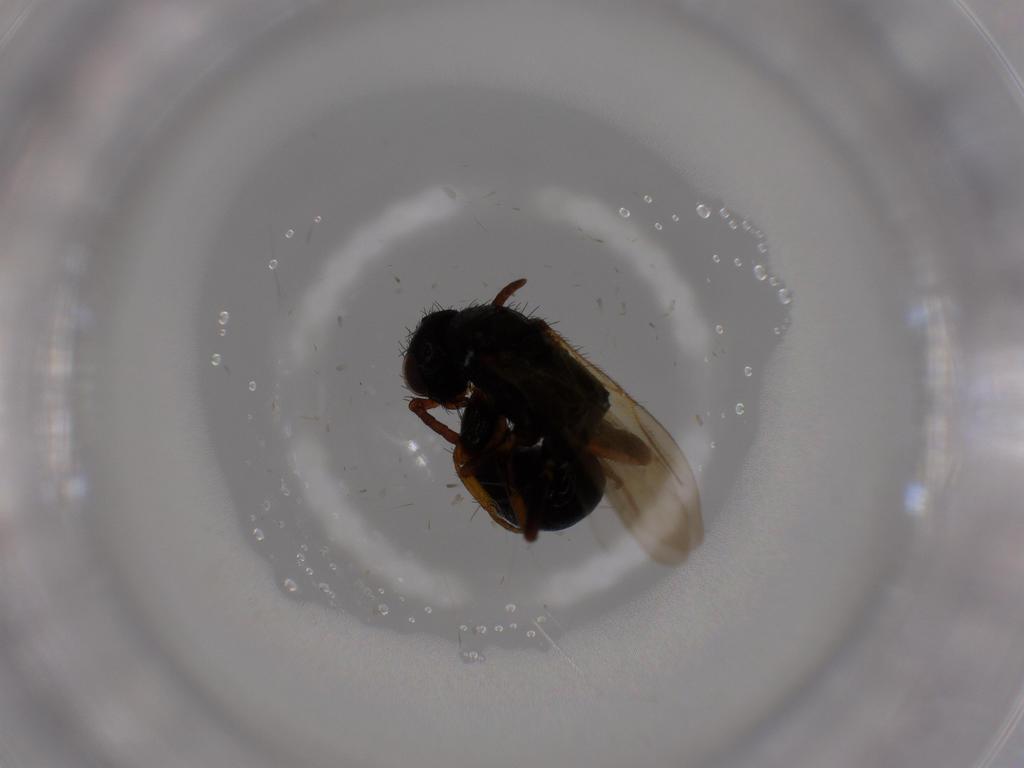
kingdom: Animalia
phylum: Arthropoda
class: Insecta
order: Hymenoptera
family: Bethylidae
